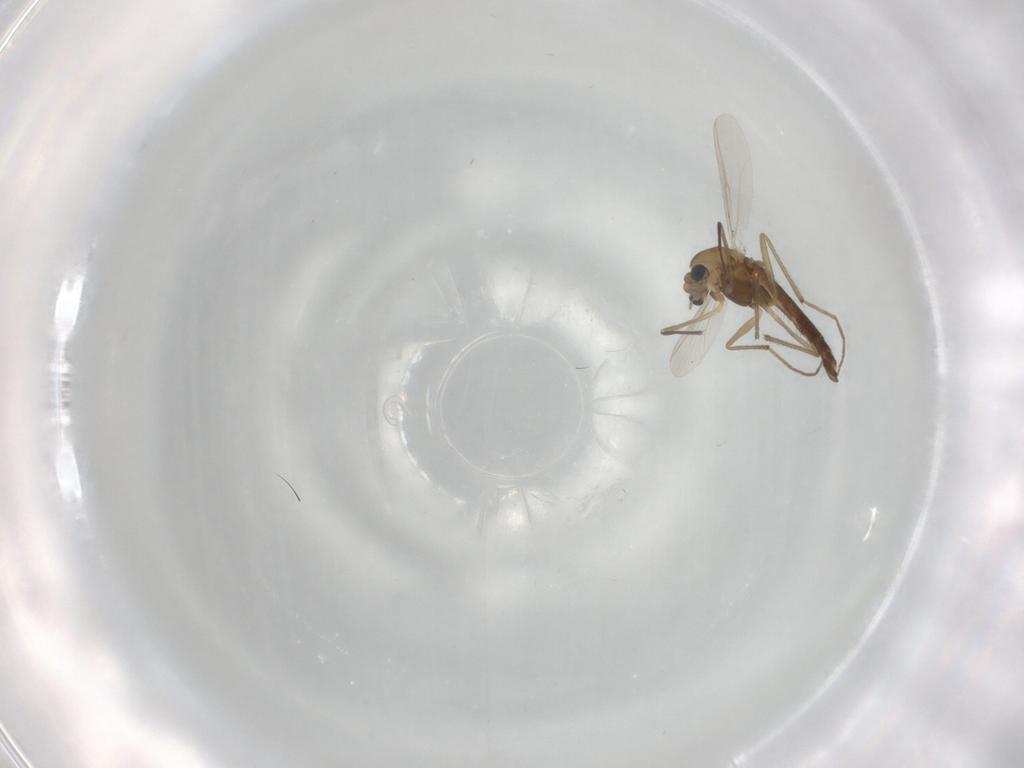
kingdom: Animalia
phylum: Arthropoda
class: Insecta
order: Diptera
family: Chironomidae
